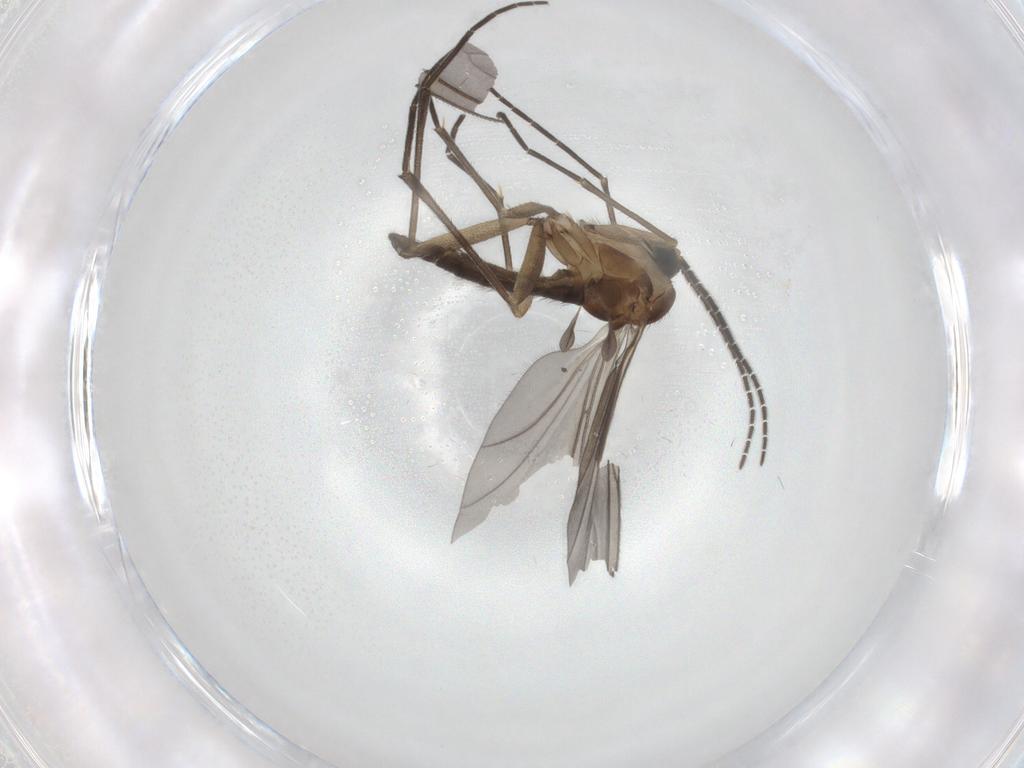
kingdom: Animalia
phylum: Arthropoda
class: Insecta
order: Diptera
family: Sciaridae
